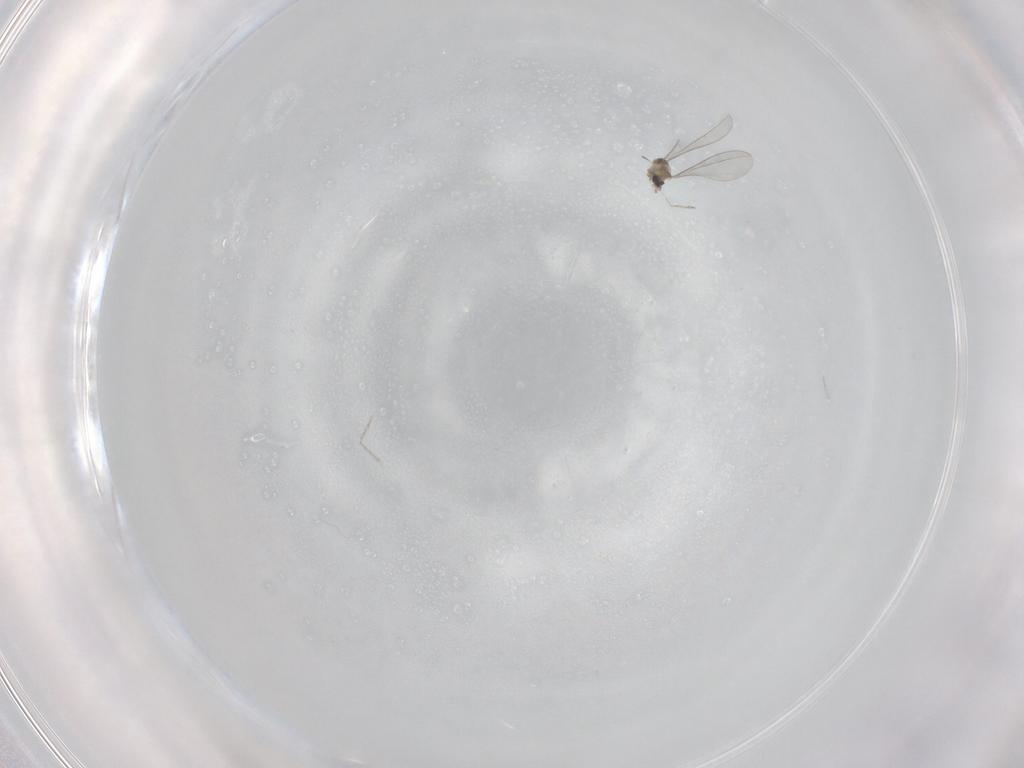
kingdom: Animalia
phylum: Arthropoda
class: Insecta
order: Diptera
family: Cecidomyiidae
